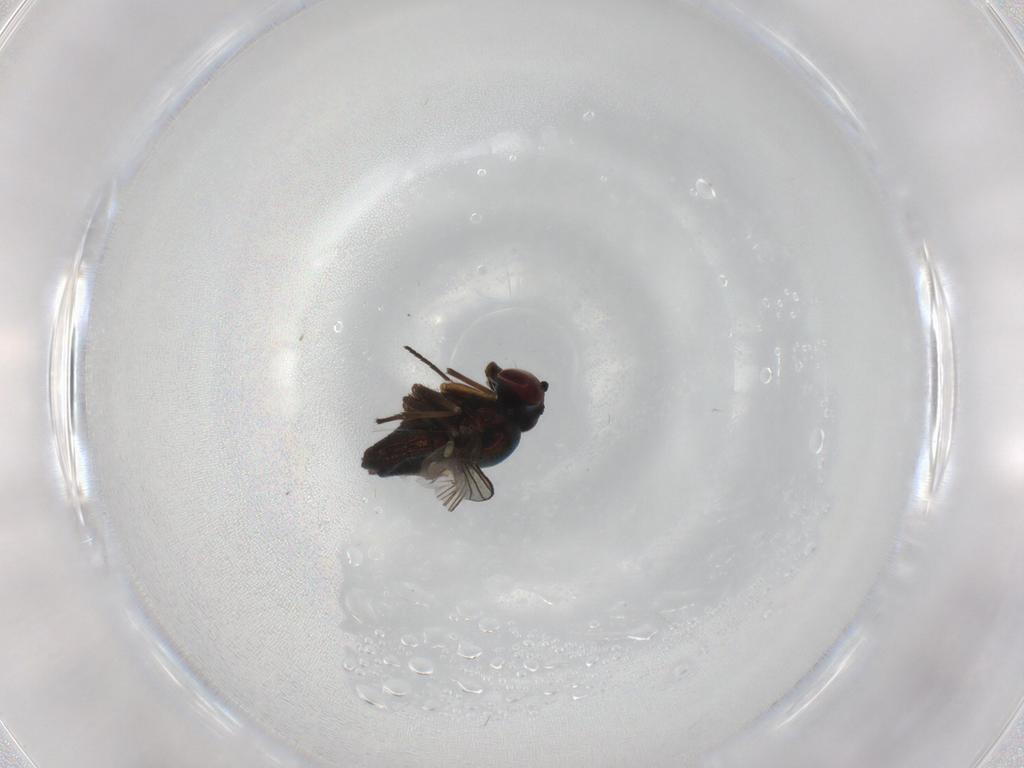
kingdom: Animalia
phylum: Arthropoda
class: Insecta
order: Diptera
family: Dolichopodidae
